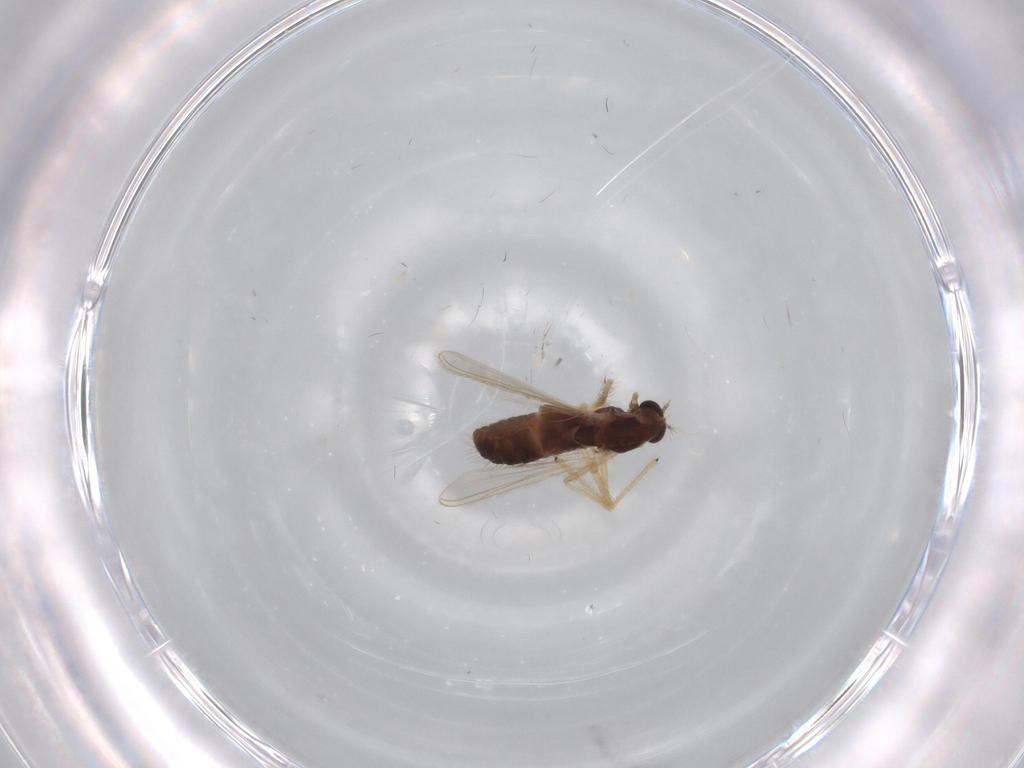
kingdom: Animalia
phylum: Arthropoda
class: Insecta
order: Diptera
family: Chironomidae
